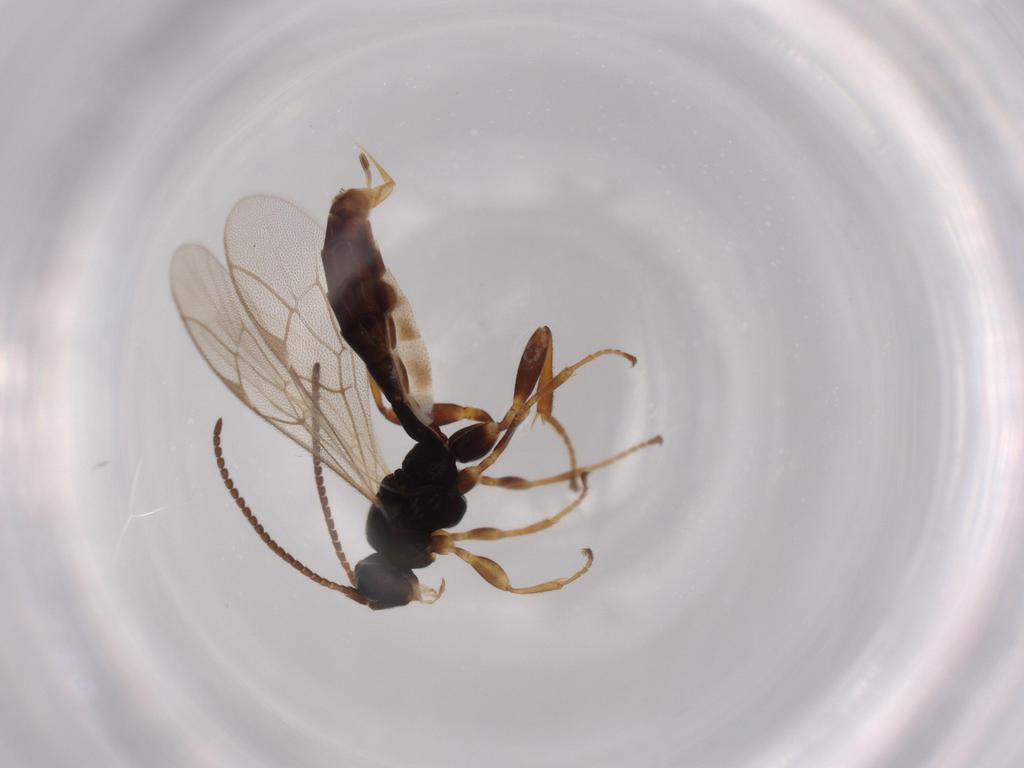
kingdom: Animalia
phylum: Arthropoda
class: Insecta
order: Hymenoptera
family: Ichneumonidae
